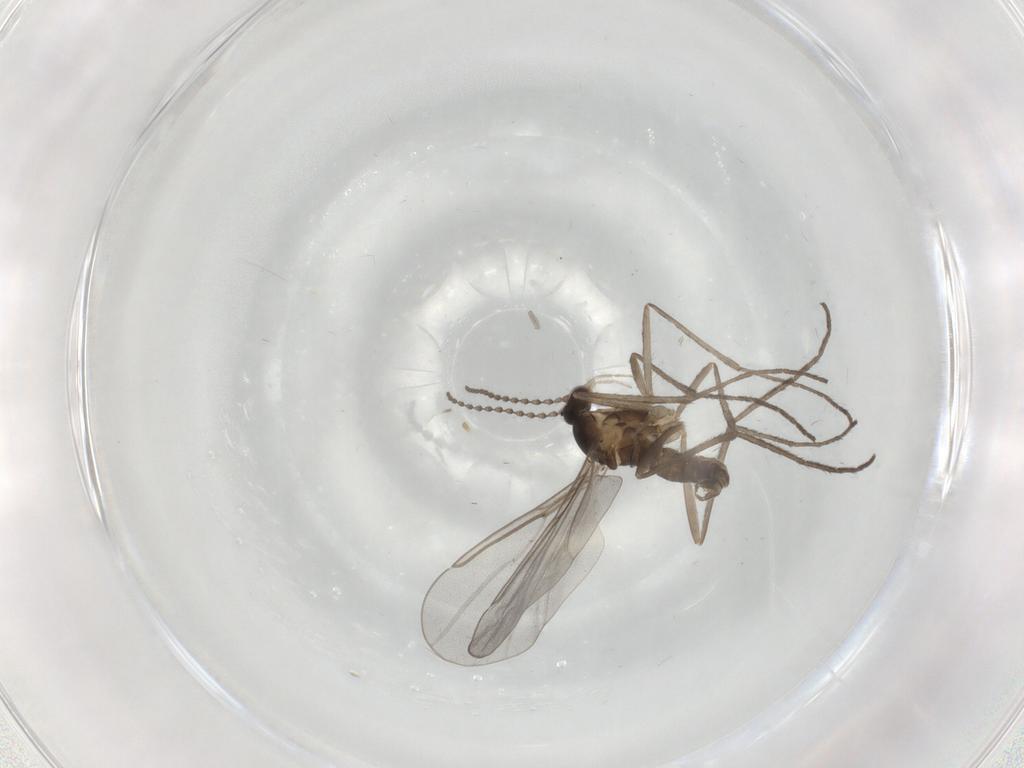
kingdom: Animalia
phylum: Arthropoda
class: Insecta
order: Diptera
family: Cecidomyiidae
